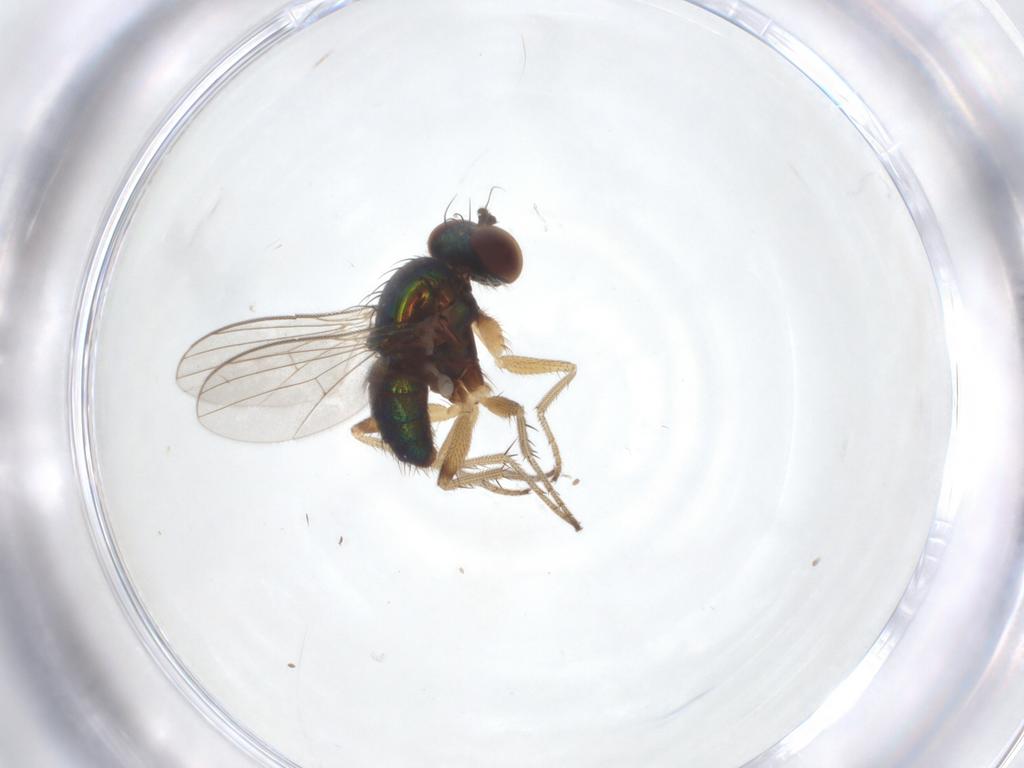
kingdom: Animalia
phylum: Arthropoda
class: Insecta
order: Diptera
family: Dolichopodidae
